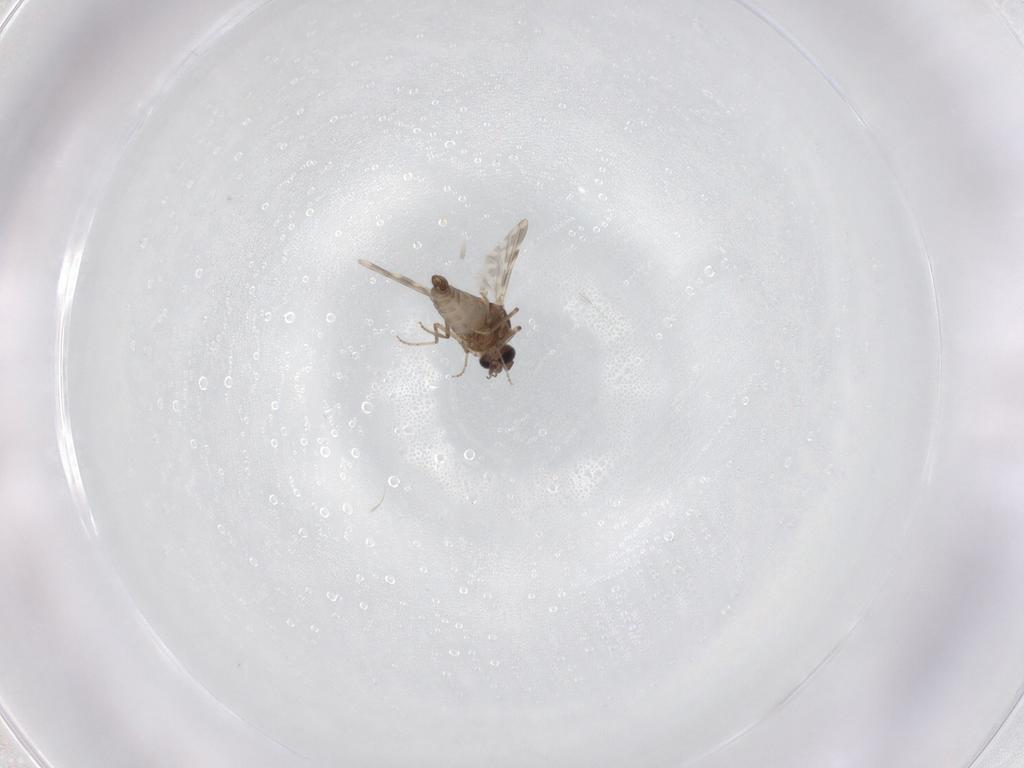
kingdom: Animalia
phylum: Arthropoda
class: Insecta
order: Diptera
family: Ceratopogonidae
